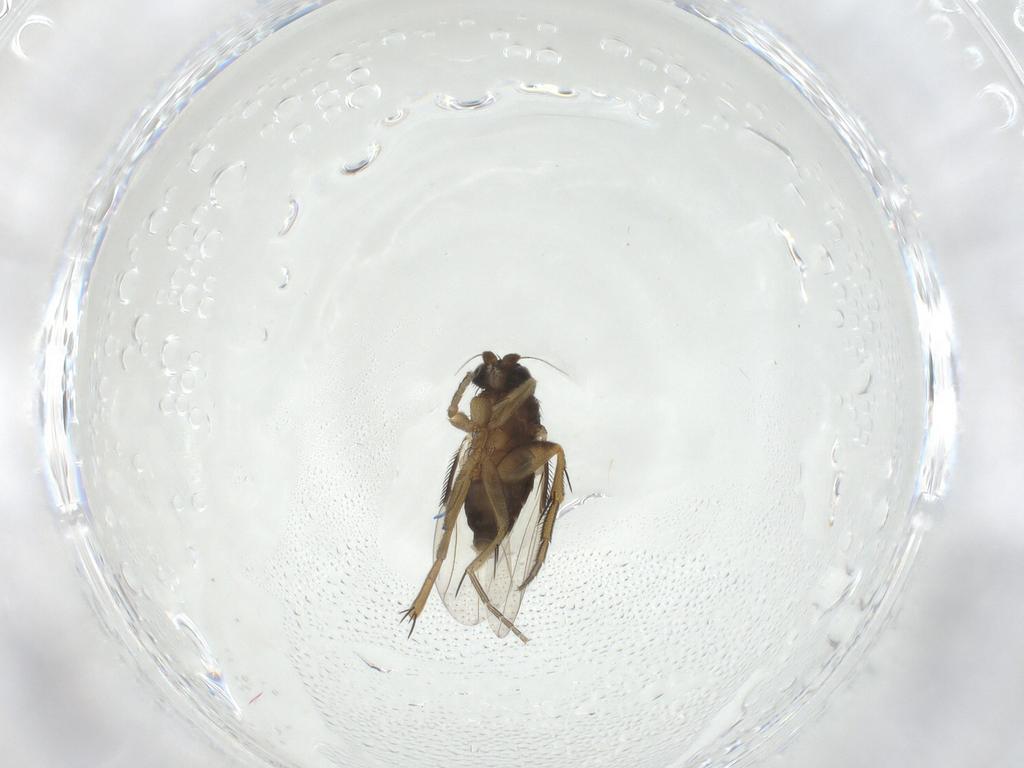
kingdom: Animalia
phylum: Arthropoda
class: Insecta
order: Diptera
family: Phoridae
